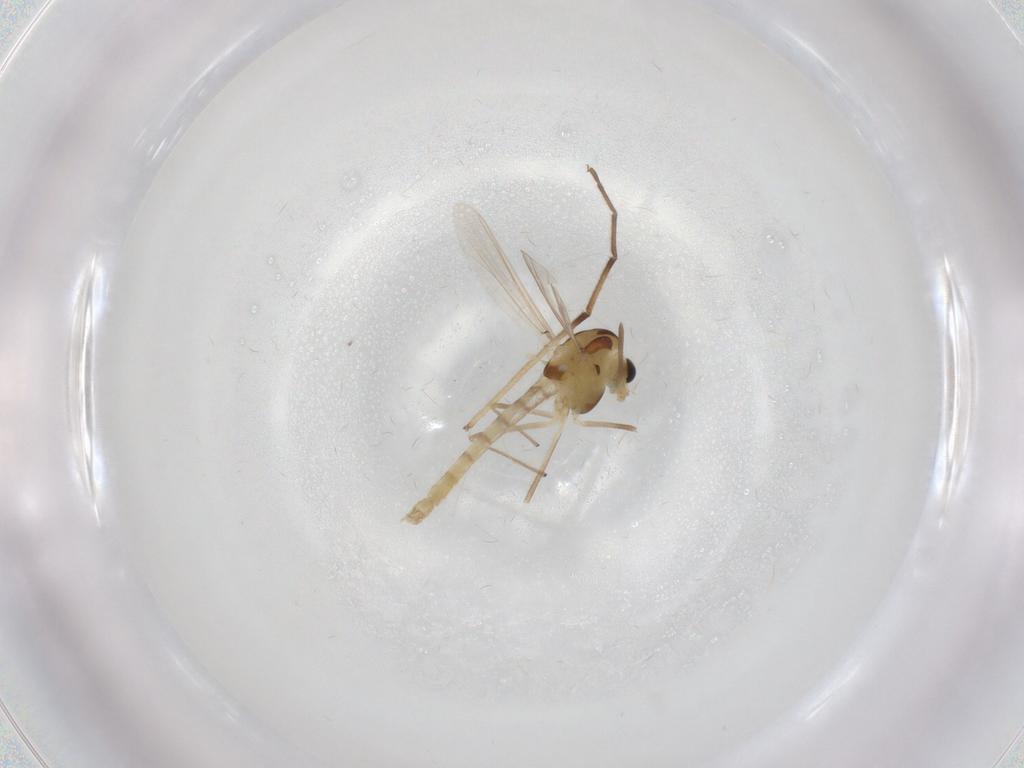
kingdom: Animalia
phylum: Arthropoda
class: Insecta
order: Diptera
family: Chironomidae
